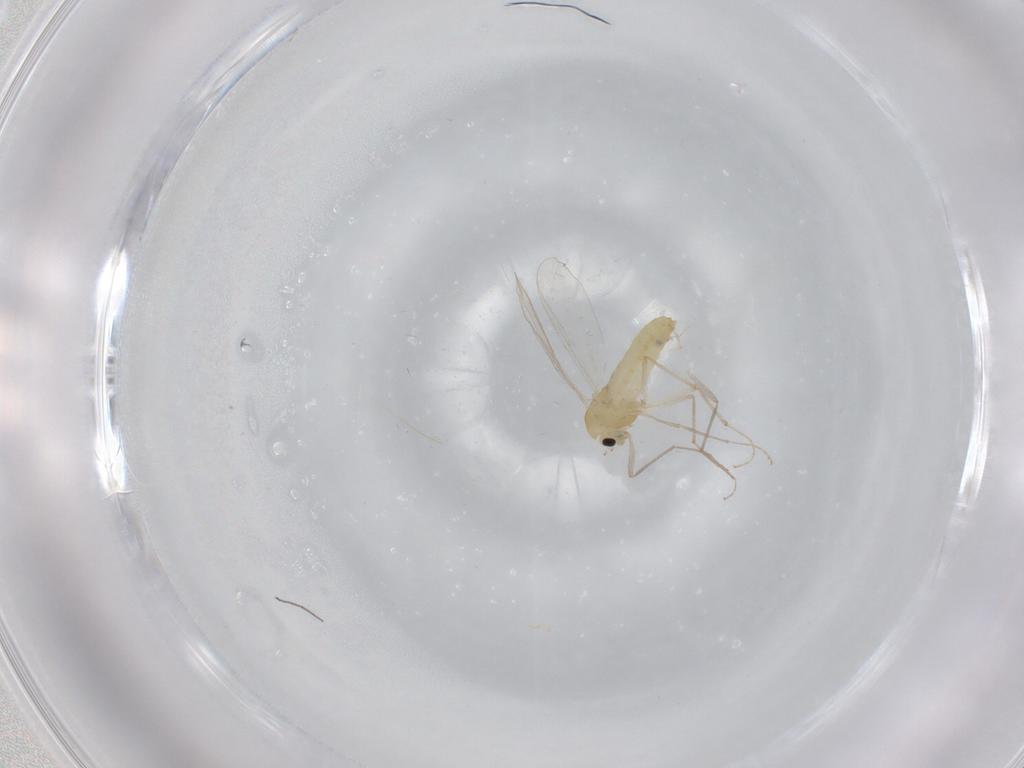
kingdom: Animalia
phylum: Arthropoda
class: Insecta
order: Diptera
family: Chironomidae
